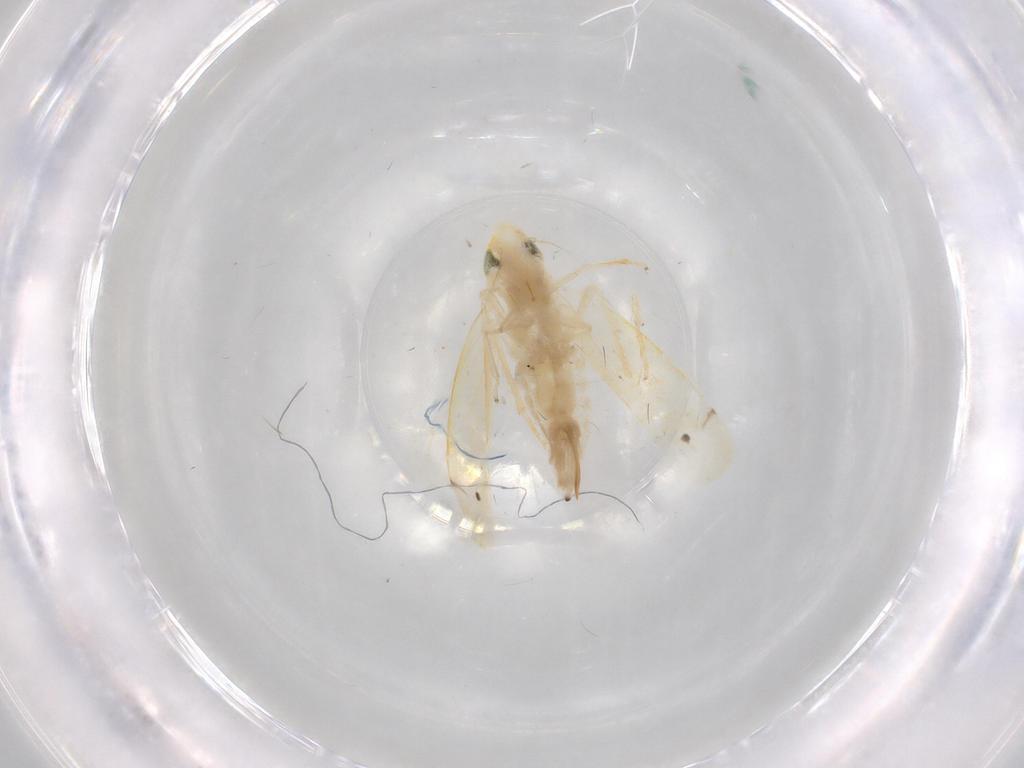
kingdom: Animalia
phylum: Arthropoda
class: Insecta
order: Hemiptera
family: Cicadellidae
